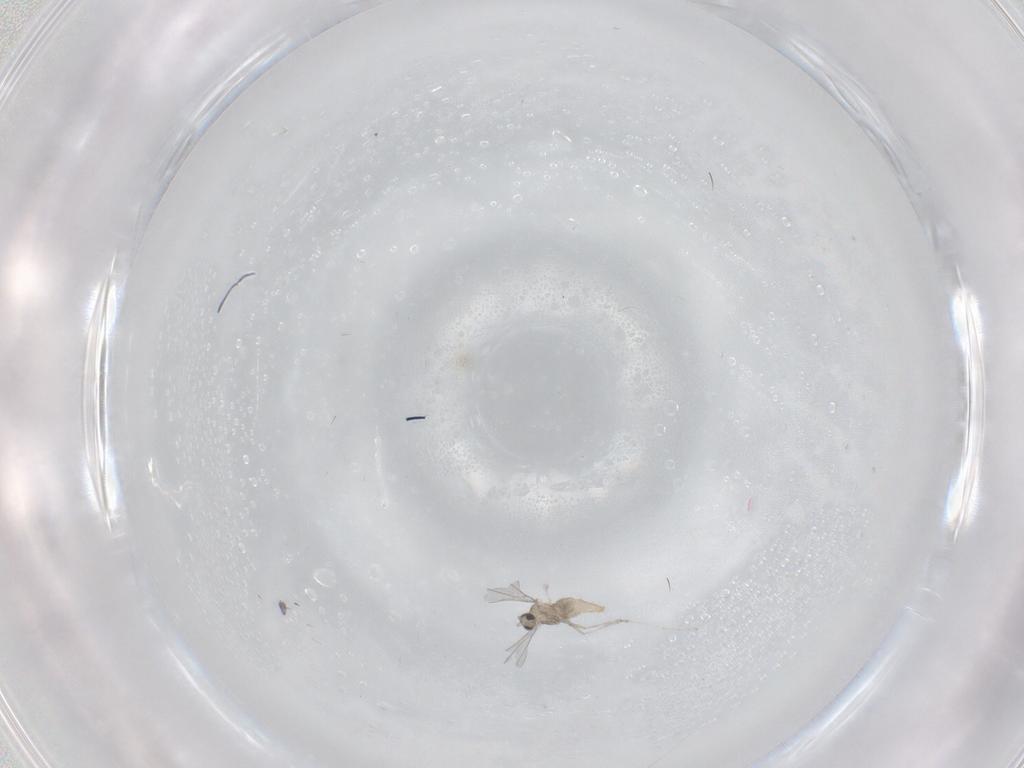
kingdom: Animalia
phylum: Arthropoda
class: Insecta
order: Diptera
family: Cecidomyiidae
